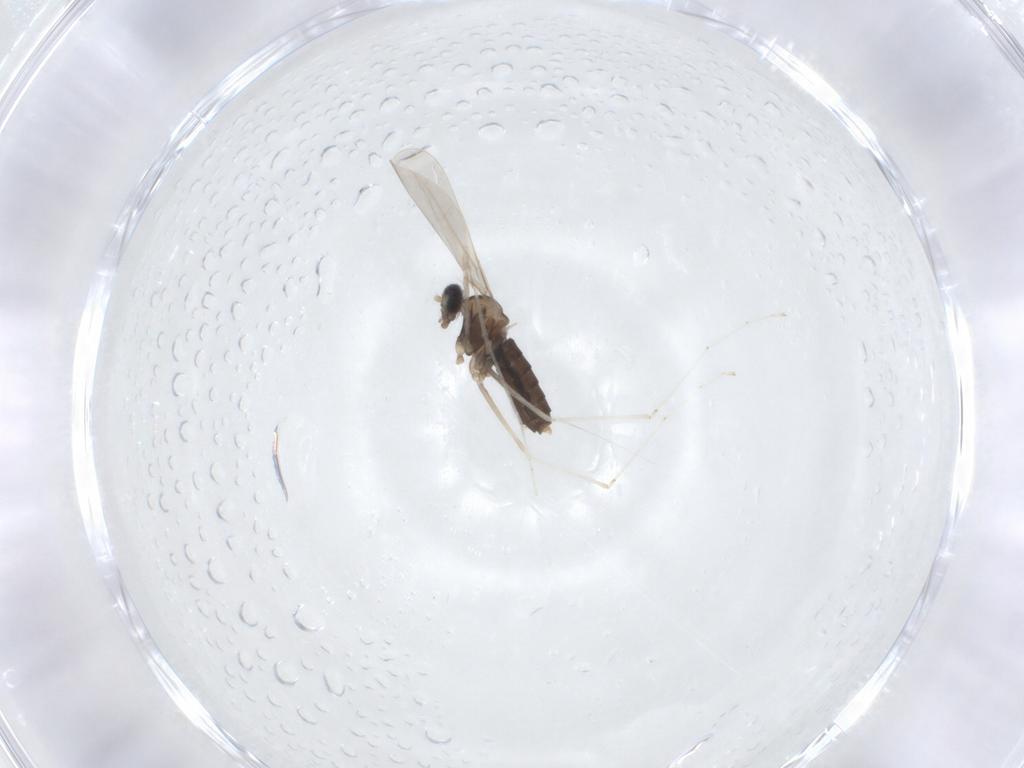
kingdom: Animalia
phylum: Arthropoda
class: Insecta
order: Diptera
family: Cecidomyiidae
